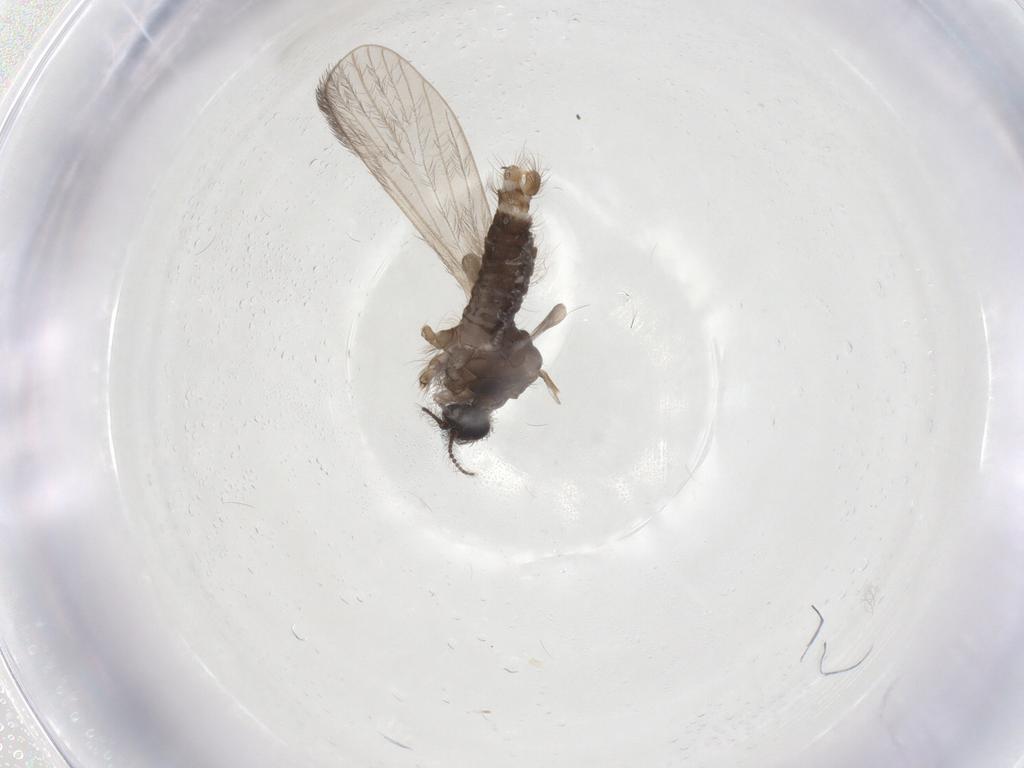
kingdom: Animalia
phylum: Arthropoda
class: Insecta
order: Diptera
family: Limoniidae
